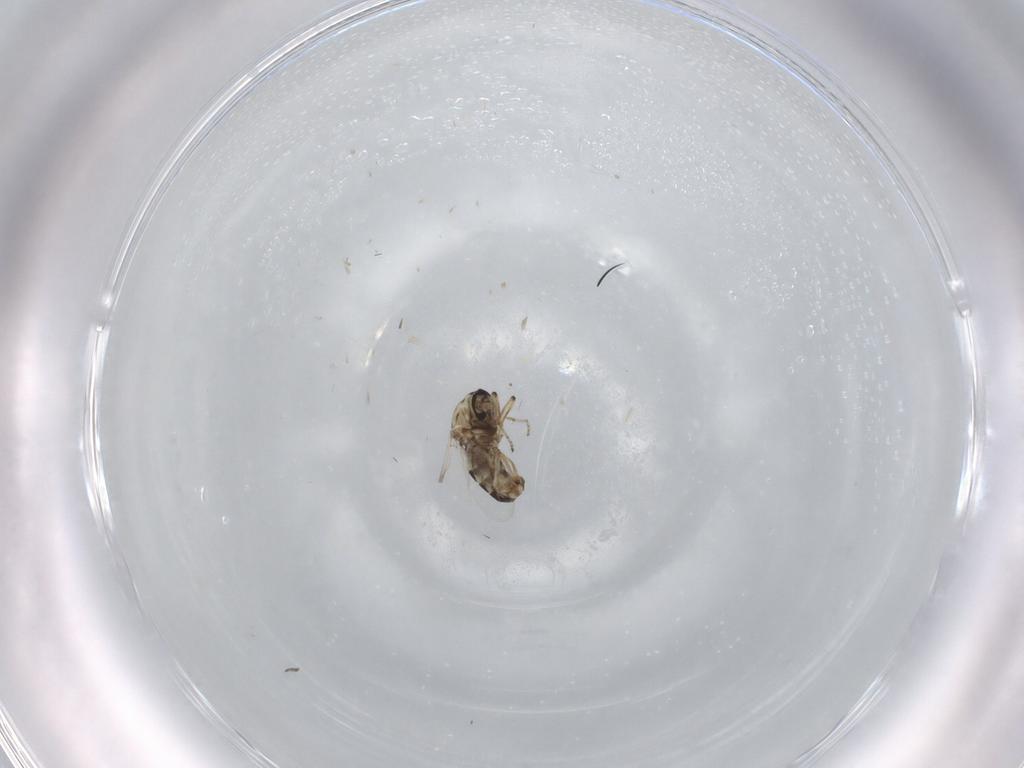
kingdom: Animalia
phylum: Arthropoda
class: Insecta
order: Diptera
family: Ceratopogonidae
